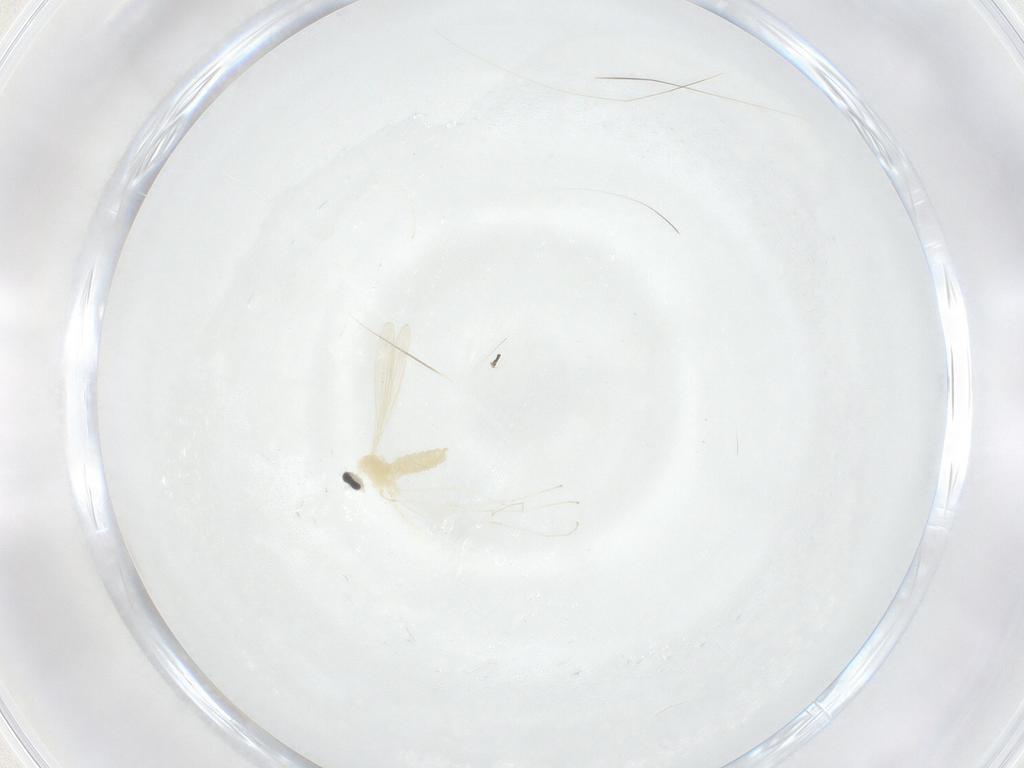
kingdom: Animalia
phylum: Arthropoda
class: Insecta
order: Diptera
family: Cecidomyiidae
